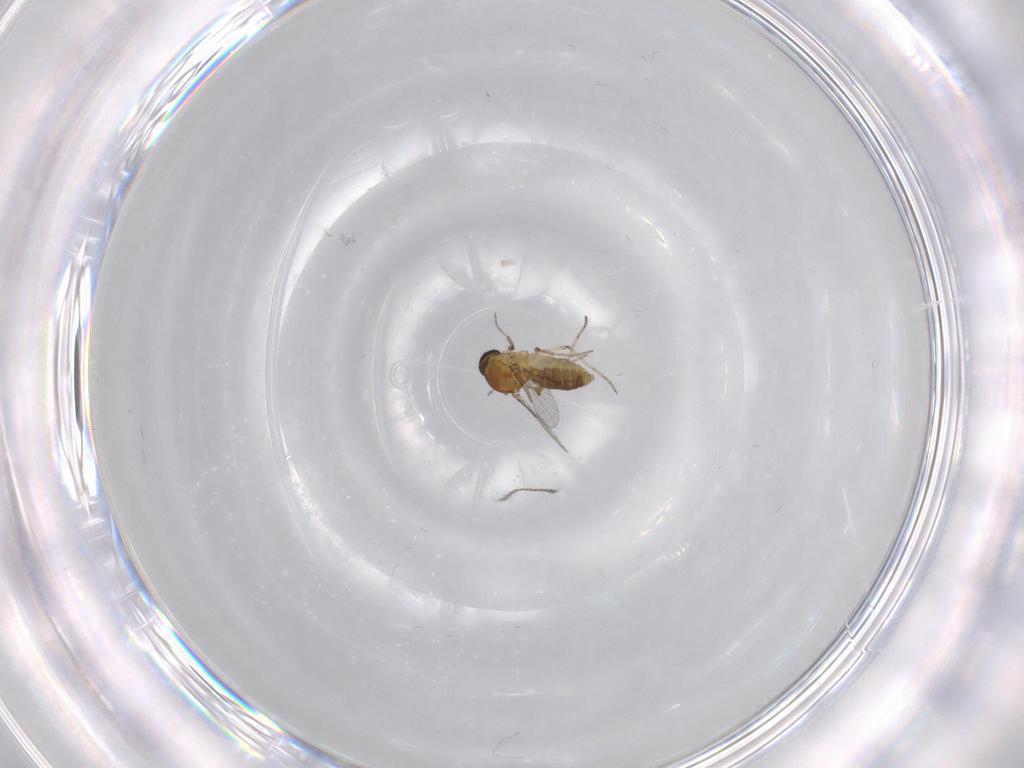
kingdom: Animalia
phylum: Arthropoda
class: Insecta
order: Diptera
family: Ceratopogonidae
